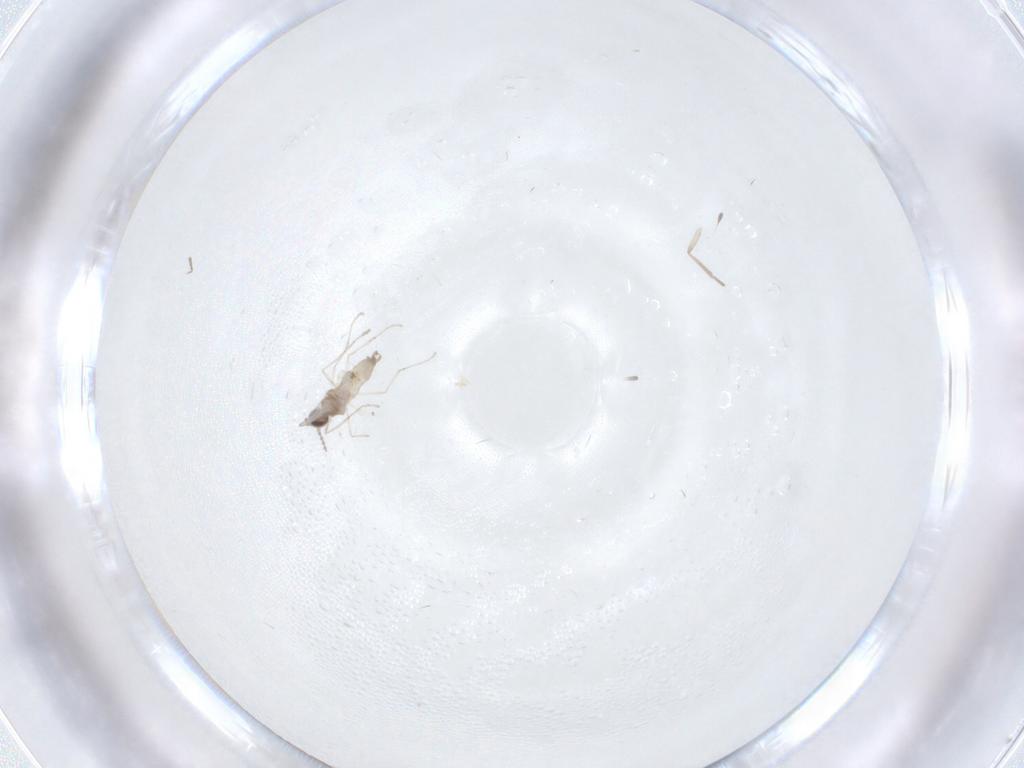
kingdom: Animalia
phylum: Arthropoda
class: Insecta
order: Diptera
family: Cecidomyiidae
